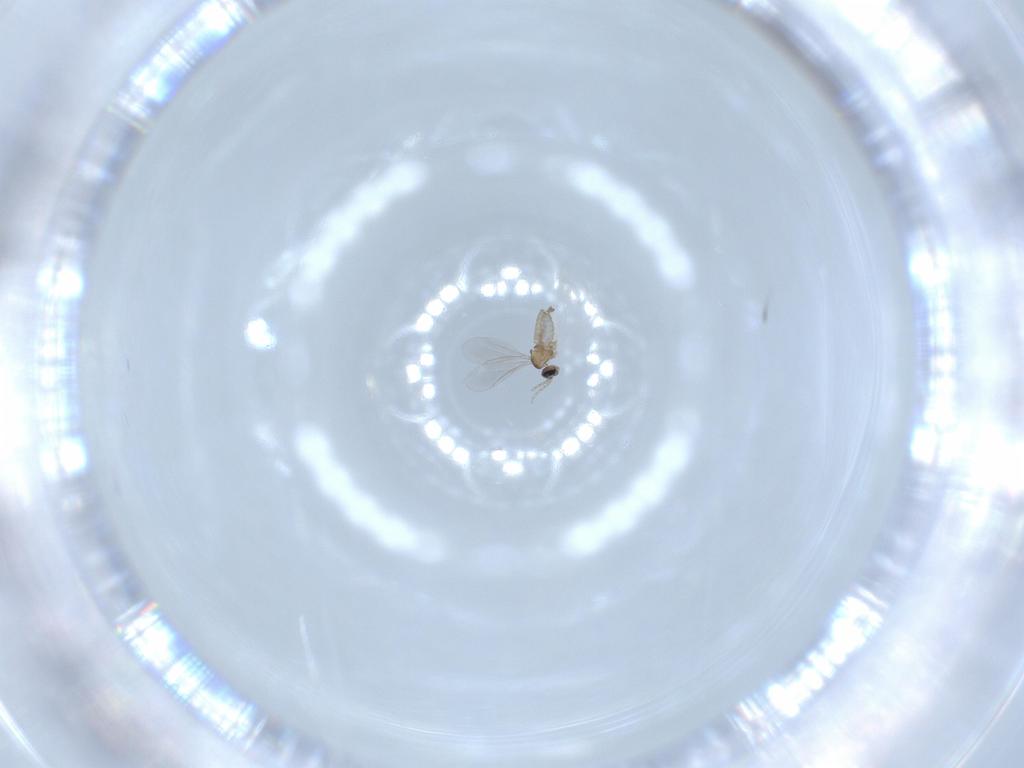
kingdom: Animalia
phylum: Arthropoda
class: Insecta
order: Diptera
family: Cecidomyiidae
